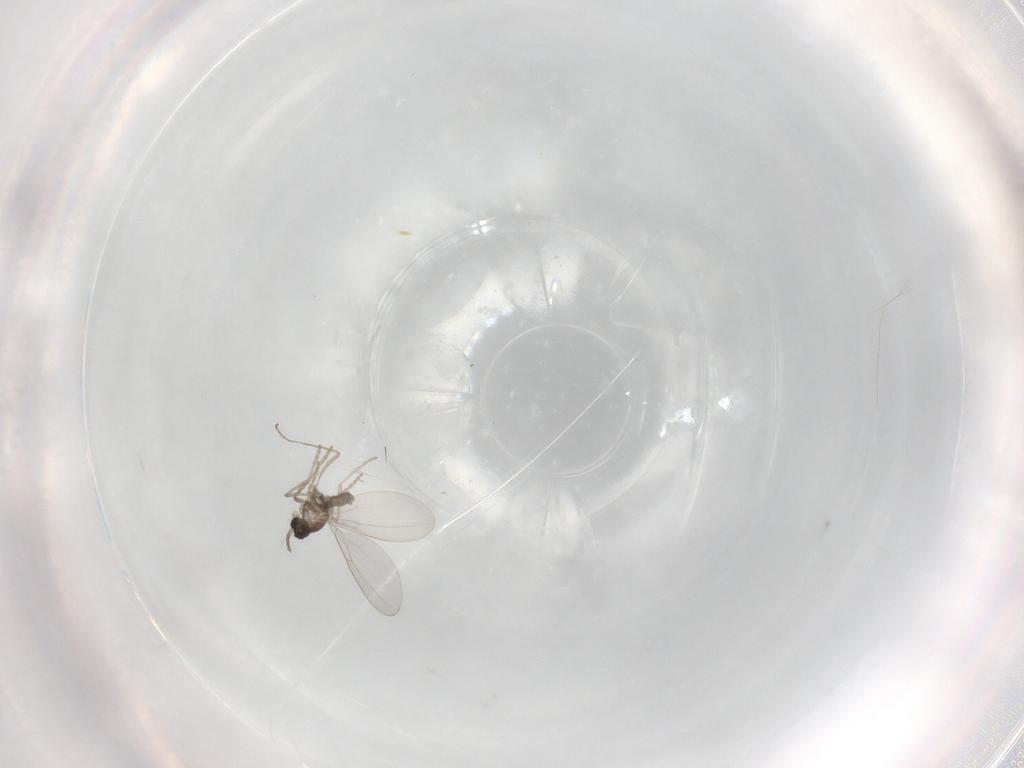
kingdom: Animalia
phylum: Arthropoda
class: Insecta
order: Diptera
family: Cecidomyiidae
